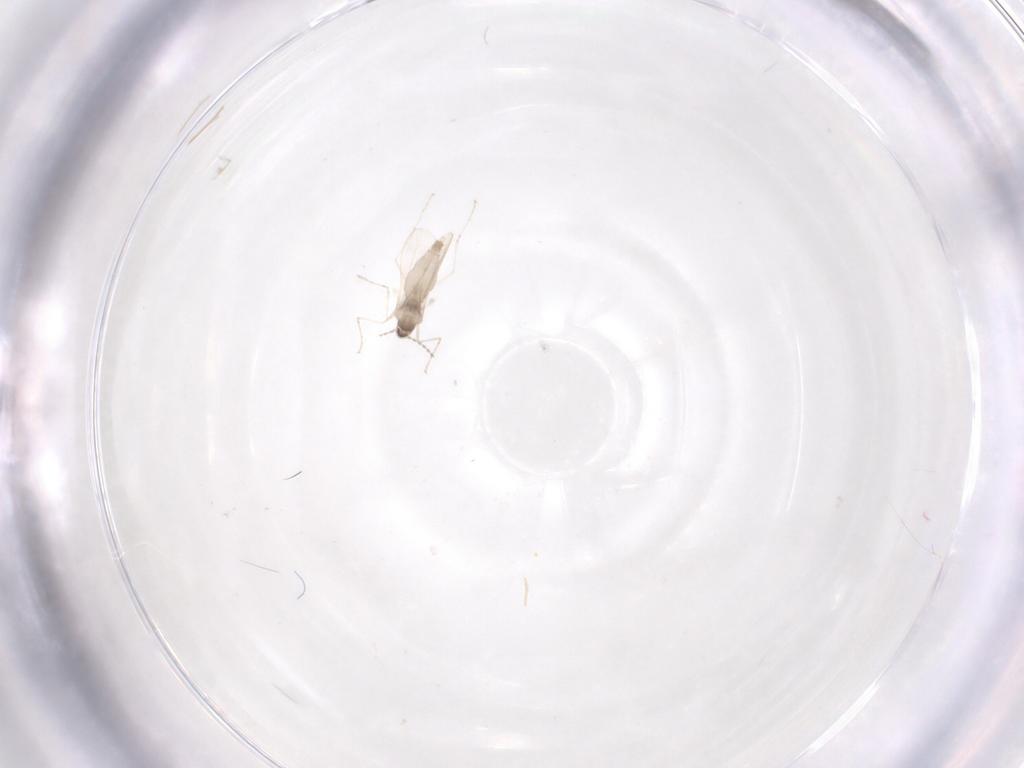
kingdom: Animalia
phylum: Arthropoda
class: Insecta
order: Diptera
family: Cecidomyiidae
